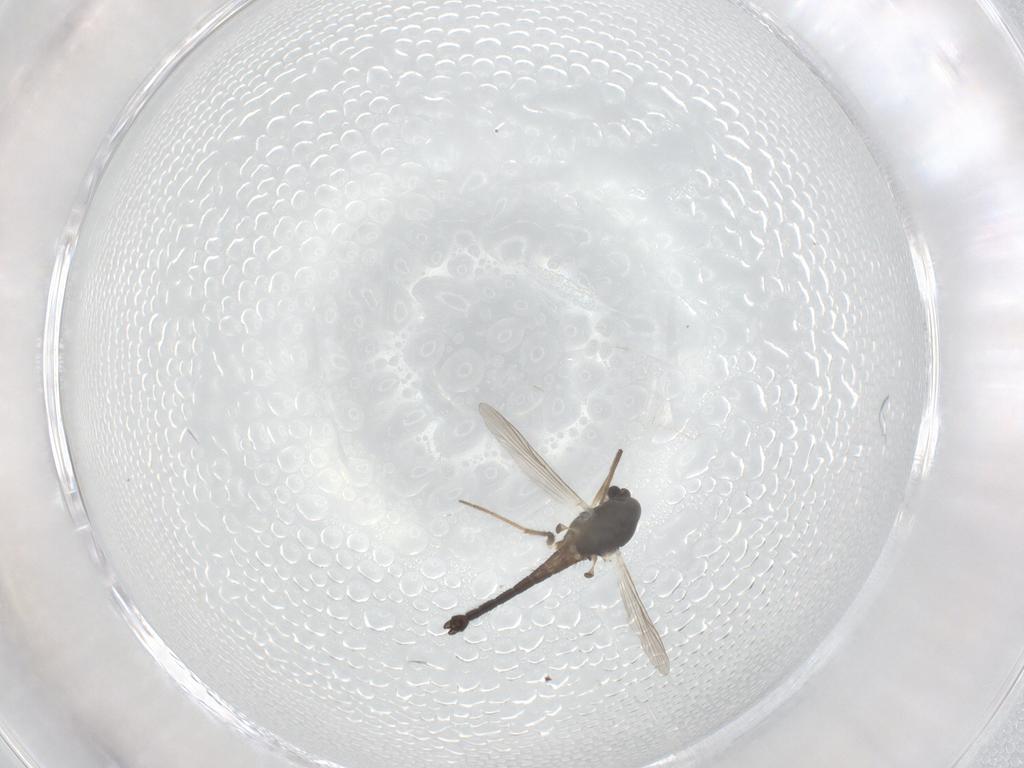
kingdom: Animalia
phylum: Arthropoda
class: Insecta
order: Diptera
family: Chironomidae
